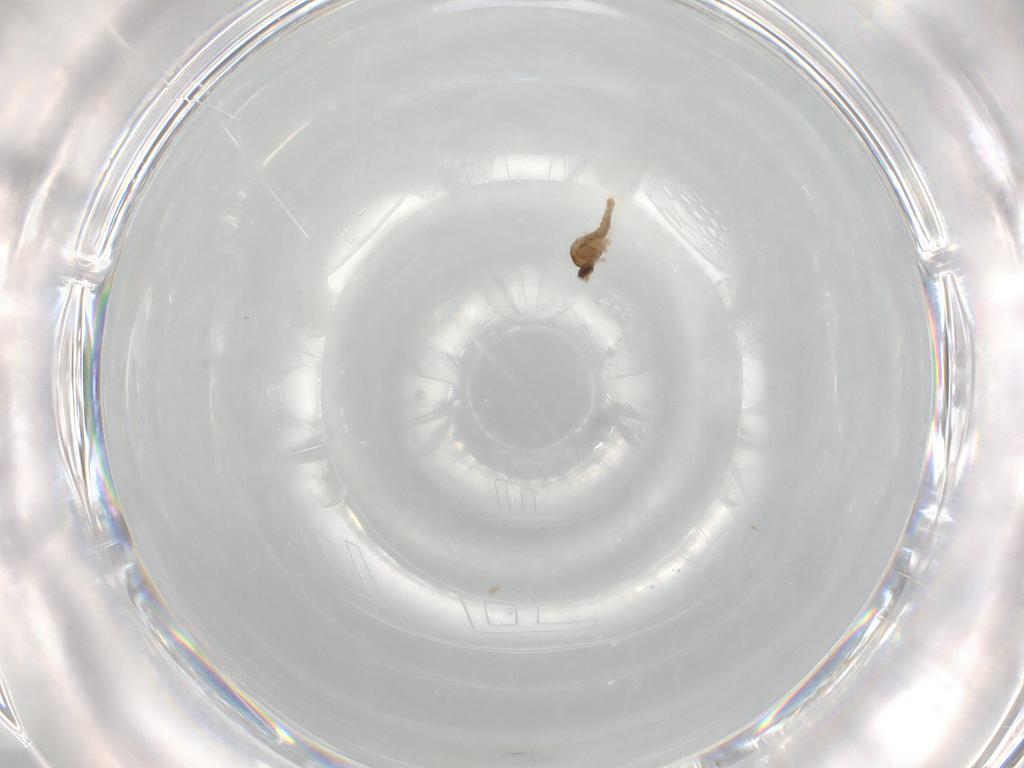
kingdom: Animalia
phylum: Arthropoda
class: Insecta
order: Diptera
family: Cecidomyiidae
